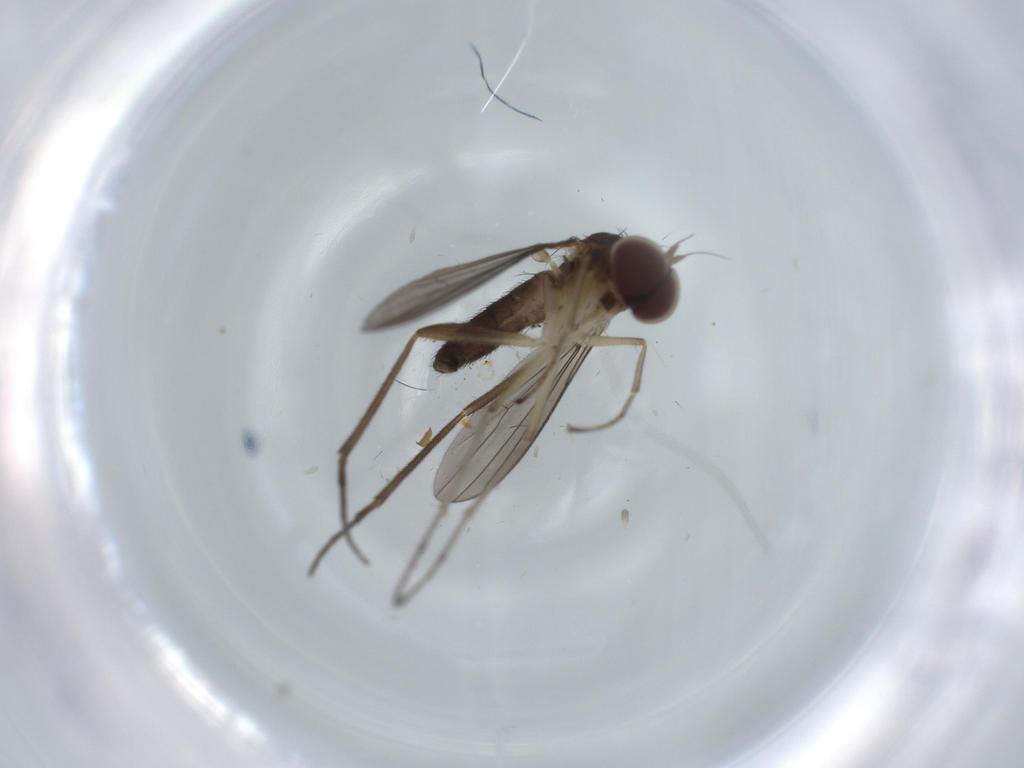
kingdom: Animalia
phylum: Arthropoda
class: Insecta
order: Diptera
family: Dolichopodidae
